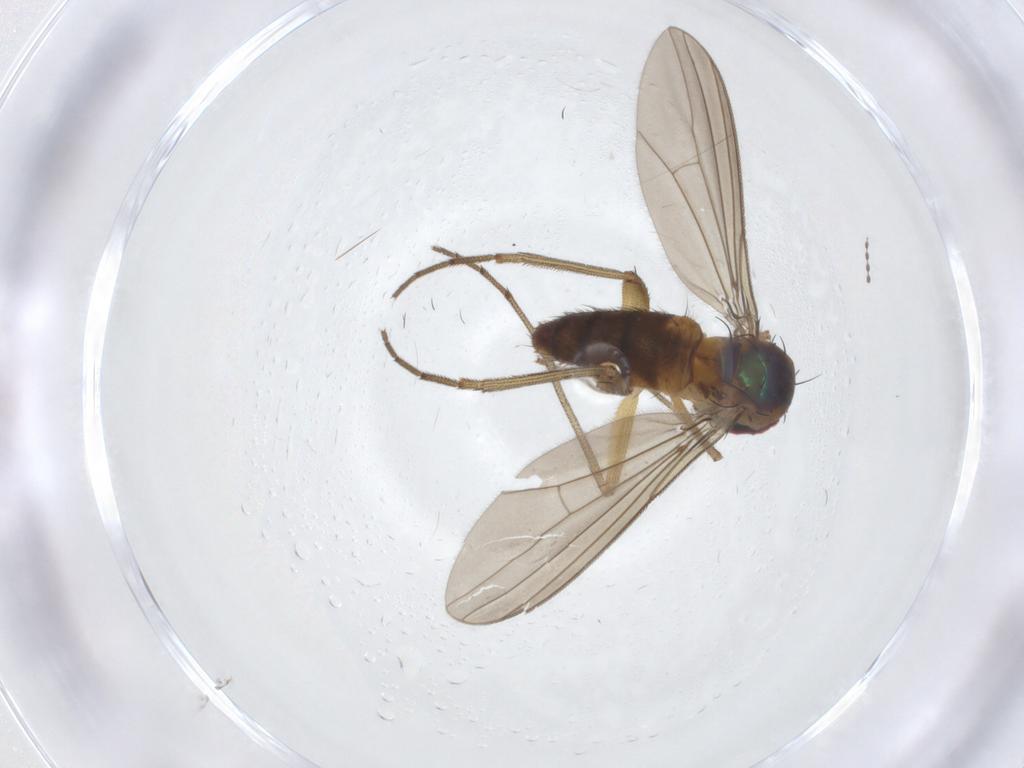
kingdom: Animalia
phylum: Arthropoda
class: Insecta
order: Diptera
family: Dolichopodidae
